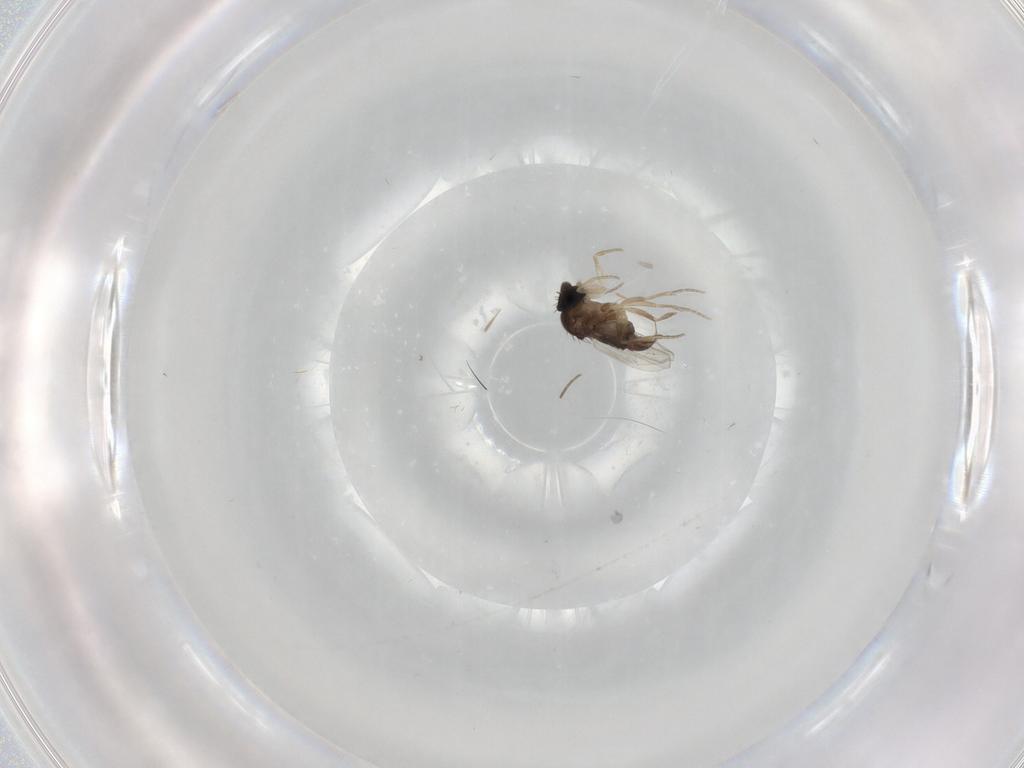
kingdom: Animalia
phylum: Arthropoda
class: Insecta
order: Diptera
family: Phoridae
